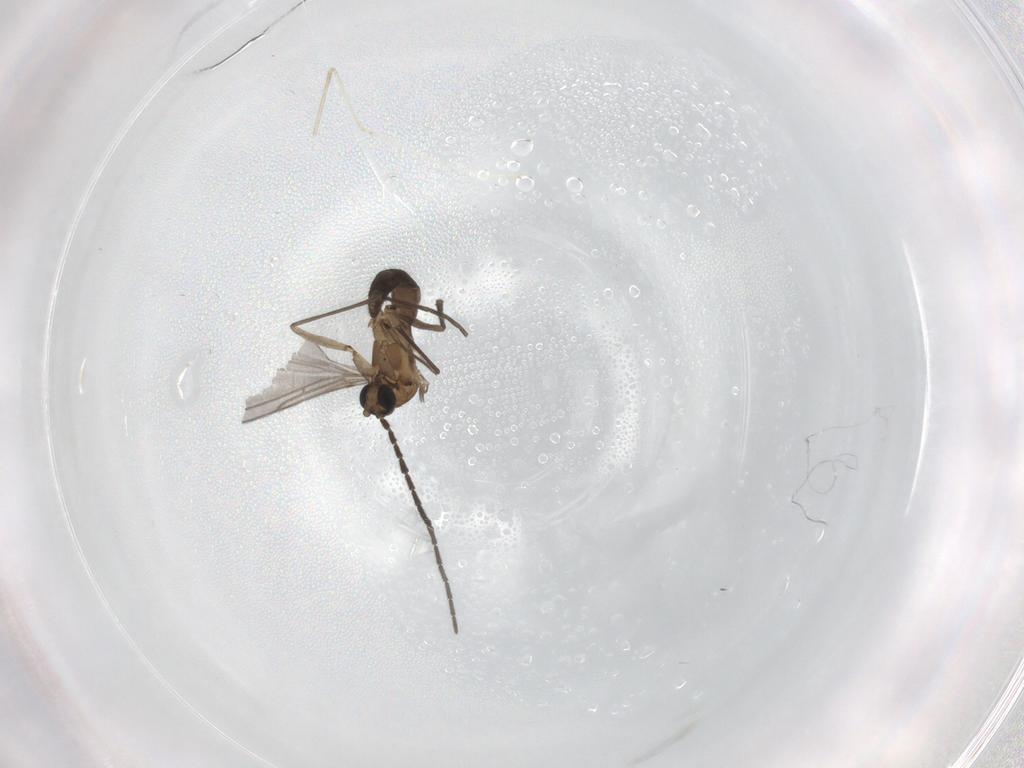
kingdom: Animalia
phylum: Arthropoda
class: Insecta
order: Diptera
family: Sciaridae
